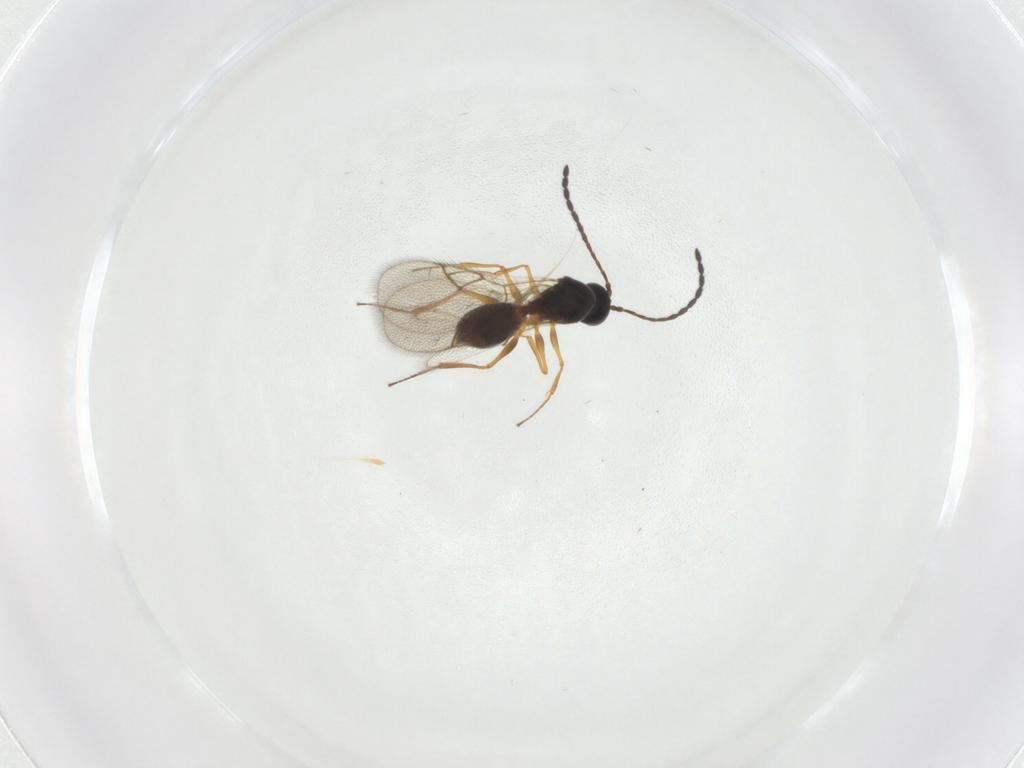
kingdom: Animalia
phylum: Arthropoda
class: Insecta
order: Hymenoptera
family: Figitidae
